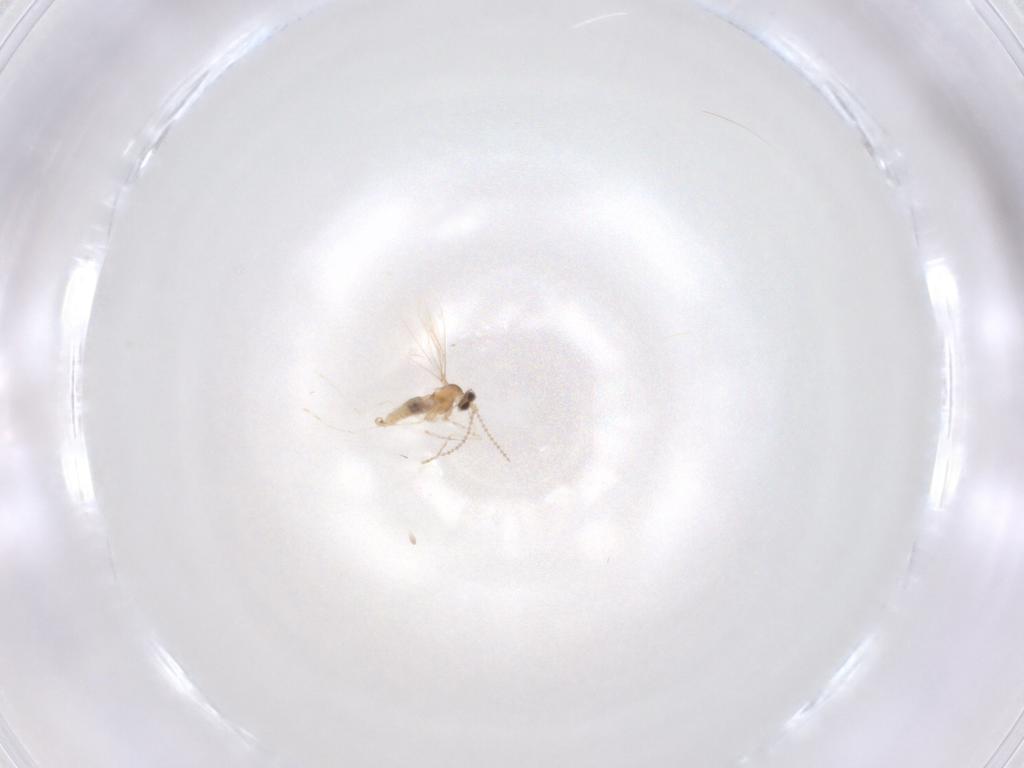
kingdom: Animalia
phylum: Arthropoda
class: Insecta
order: Diptera
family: Cecidomyiidae
